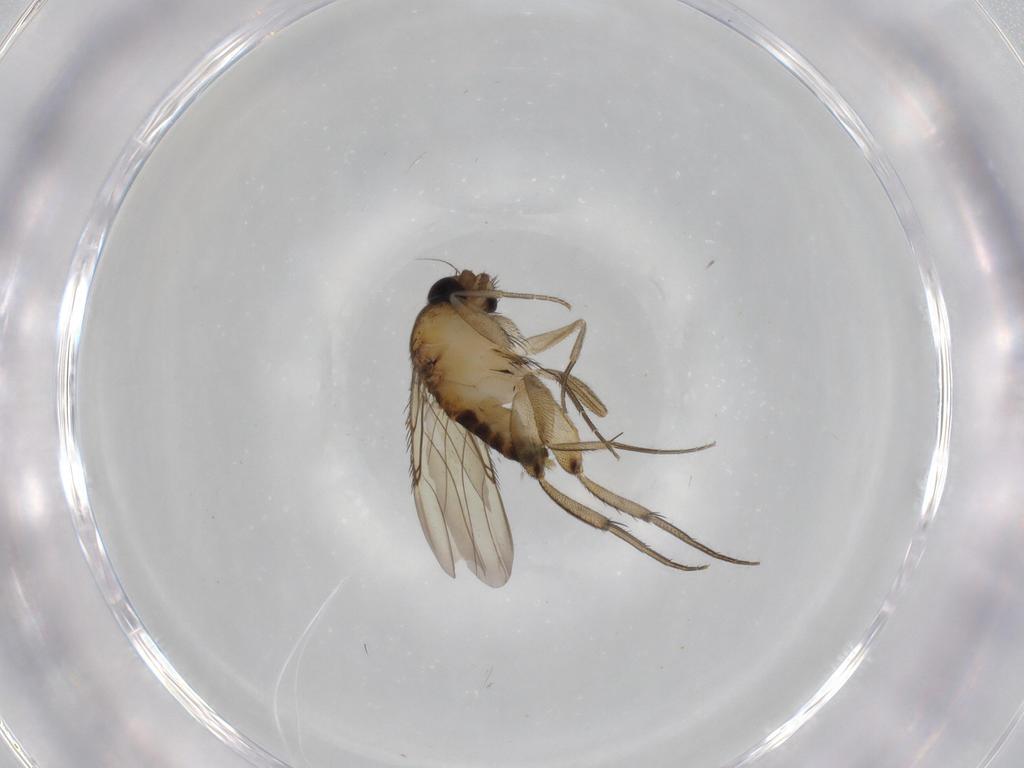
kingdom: Animalia
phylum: Arthropoda
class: Insecta
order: Diptera
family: Phoridae
